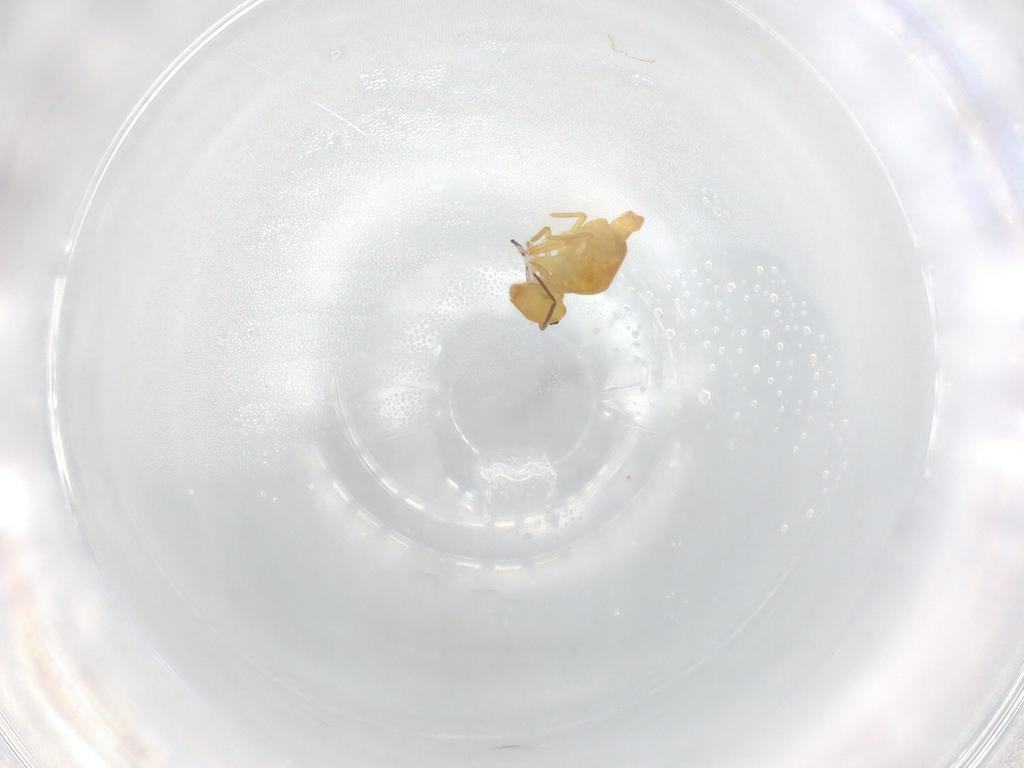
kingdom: Animalia
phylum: Arthropoda
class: Collembola
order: Symphypleona
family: Bourletiellidae
